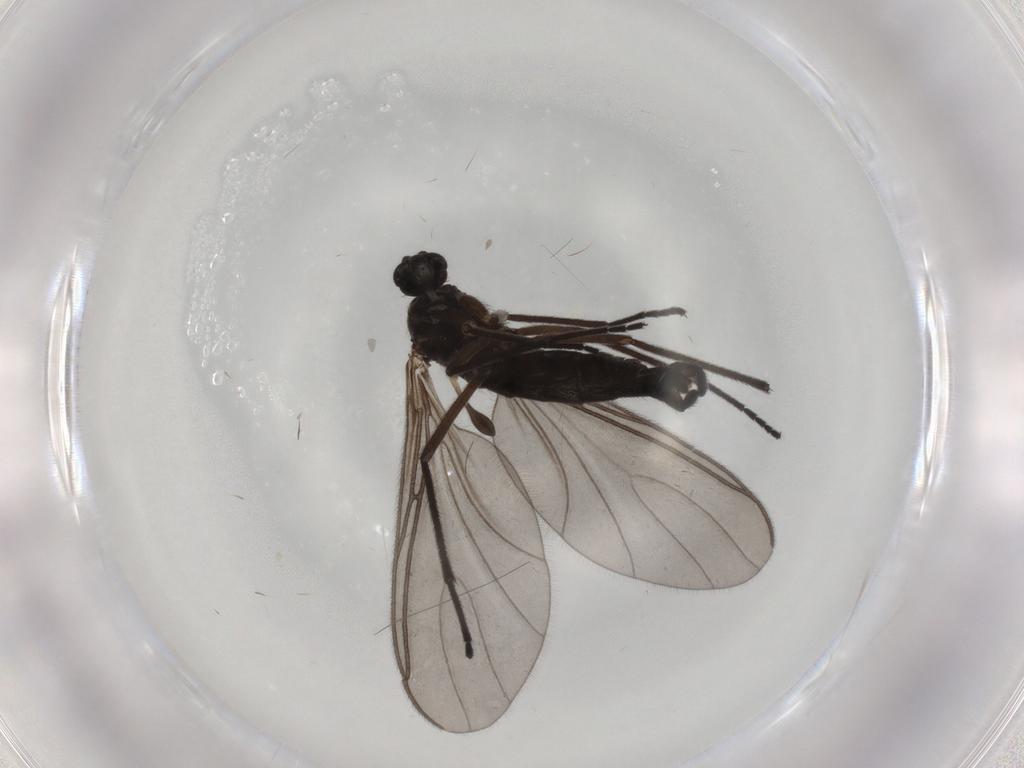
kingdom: Animalia
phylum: Arthropoda
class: Insecta
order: Diptera
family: Sciaridae
